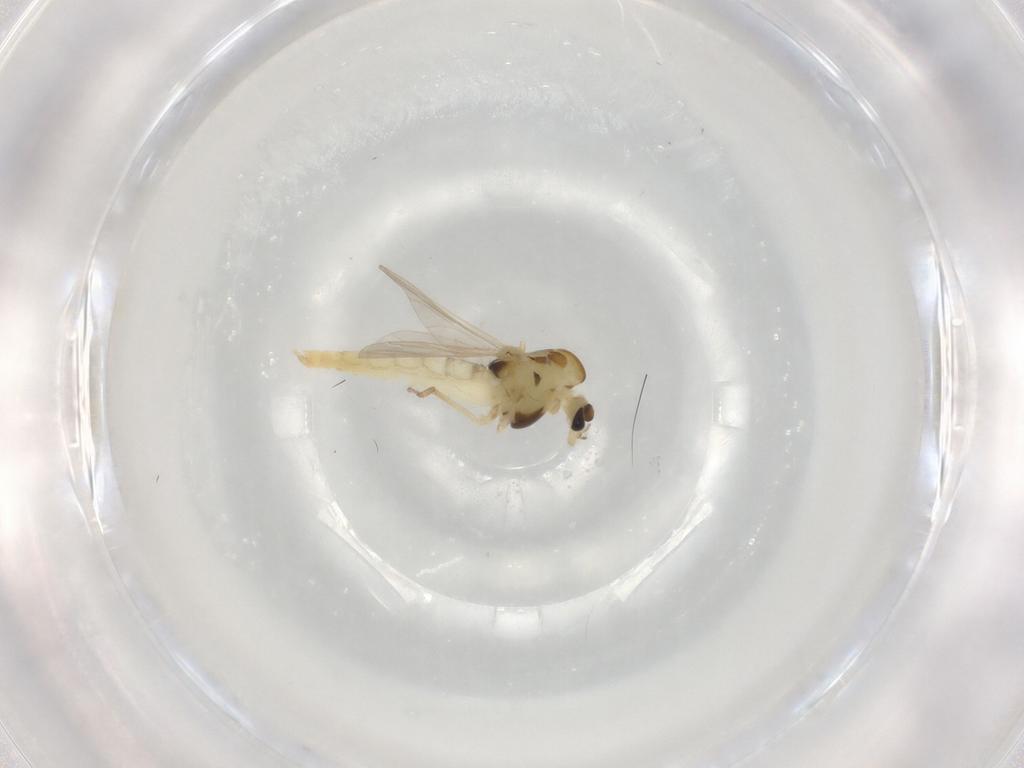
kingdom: Animalia
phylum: Arthropoda
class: Insecta
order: Diptera
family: Chironomidae
